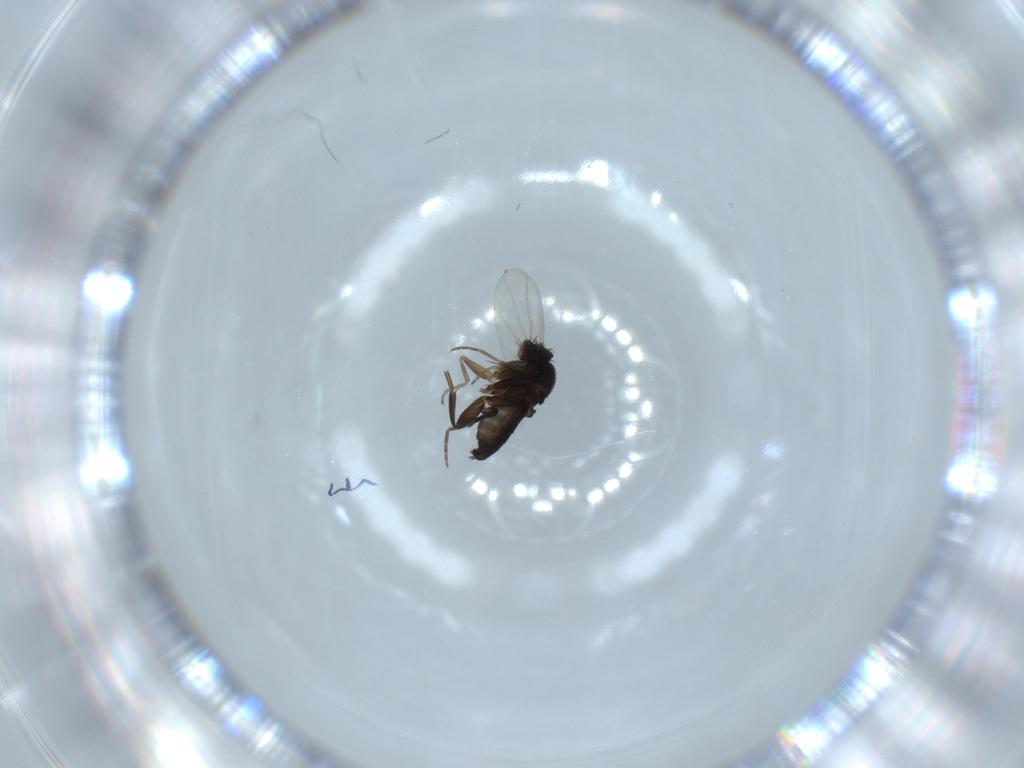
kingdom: Animalia
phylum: Arthropoda
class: Insecta
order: Diptera
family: Phoridae
